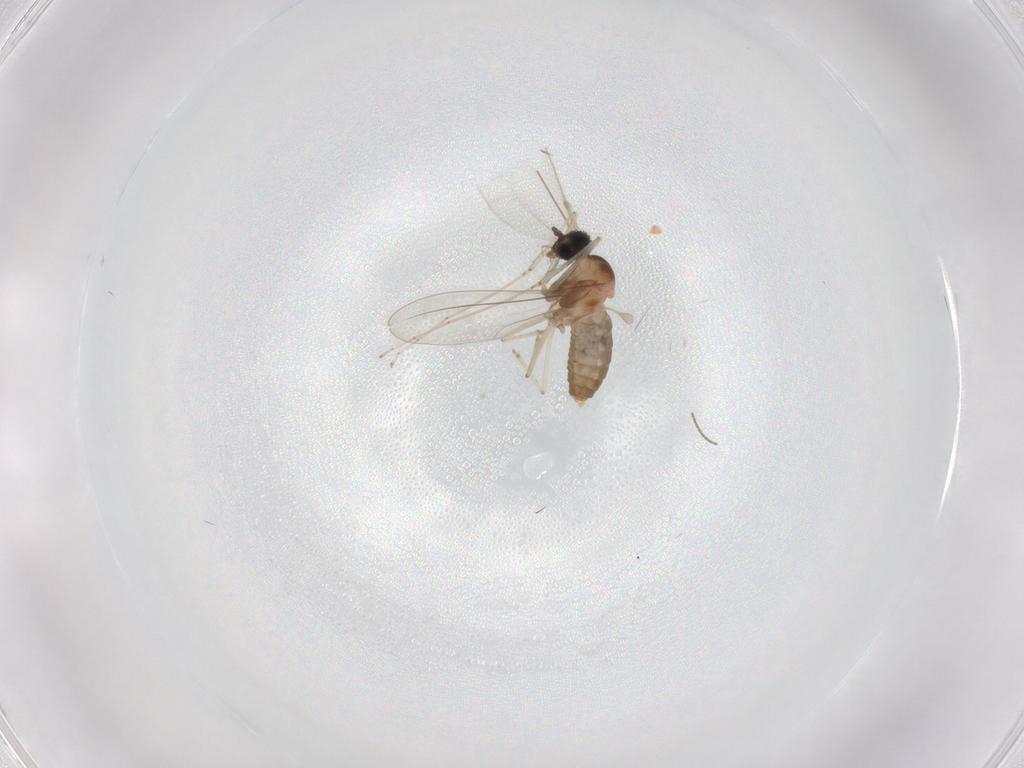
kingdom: Animalia
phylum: Arthropoda
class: Insecta
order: Diptera
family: Cecidomyiidae
